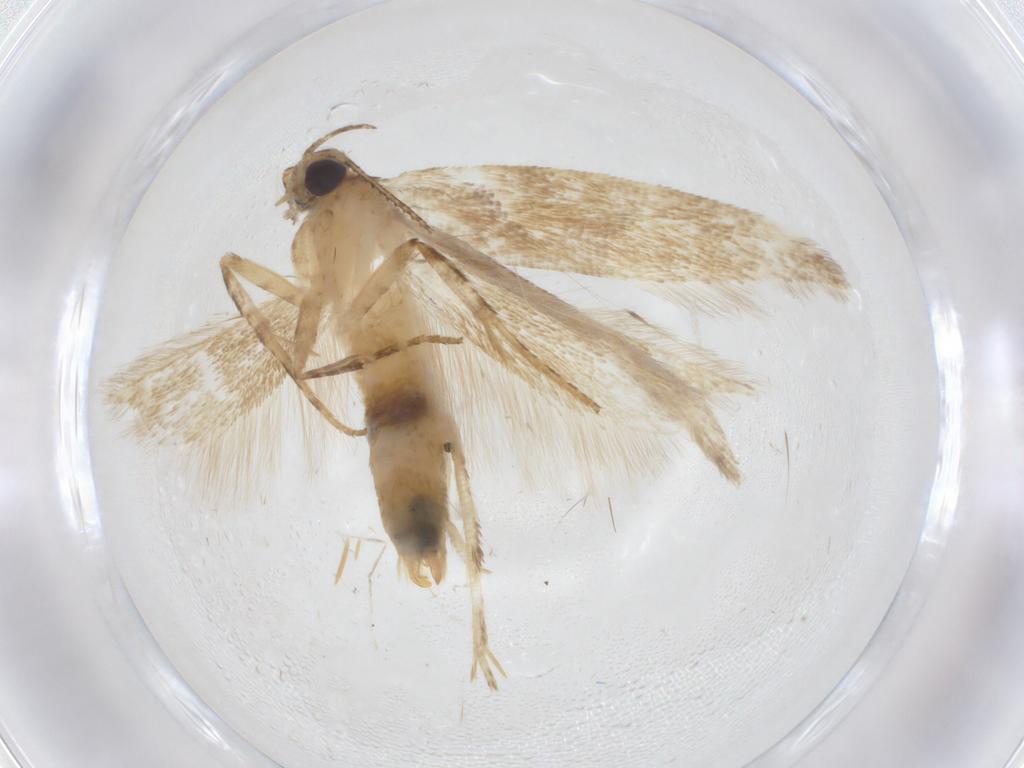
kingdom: Animalia
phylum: Arthropoda
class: Insecta
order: Lepidoptera
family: Gelechiidae
